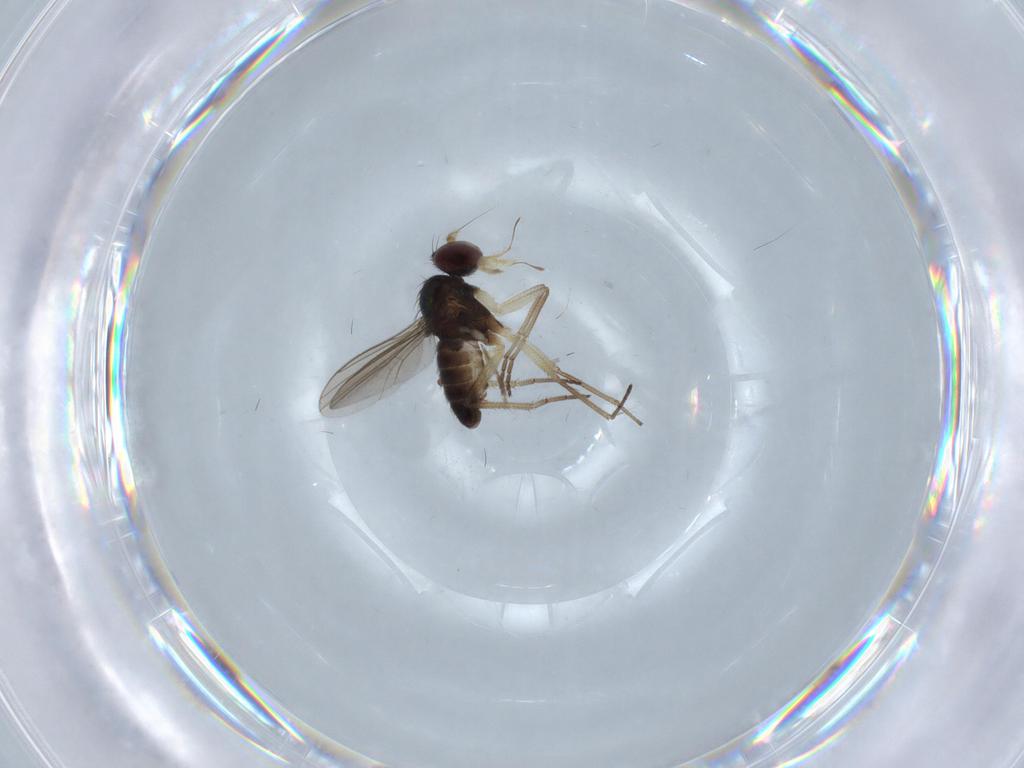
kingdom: Animalia
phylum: Arthropoda
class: Insecta
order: Diptera
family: Dolichopodidae
